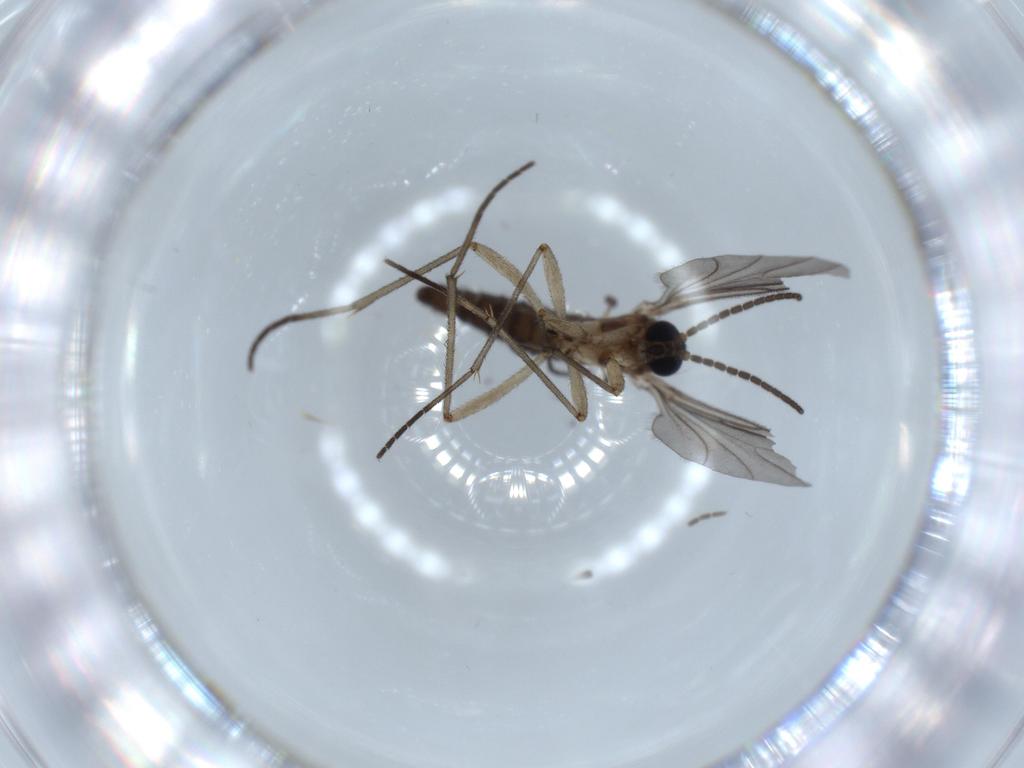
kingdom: Animalia
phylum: Arthropoda
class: Insecta
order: Diptera
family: Sciaridae
